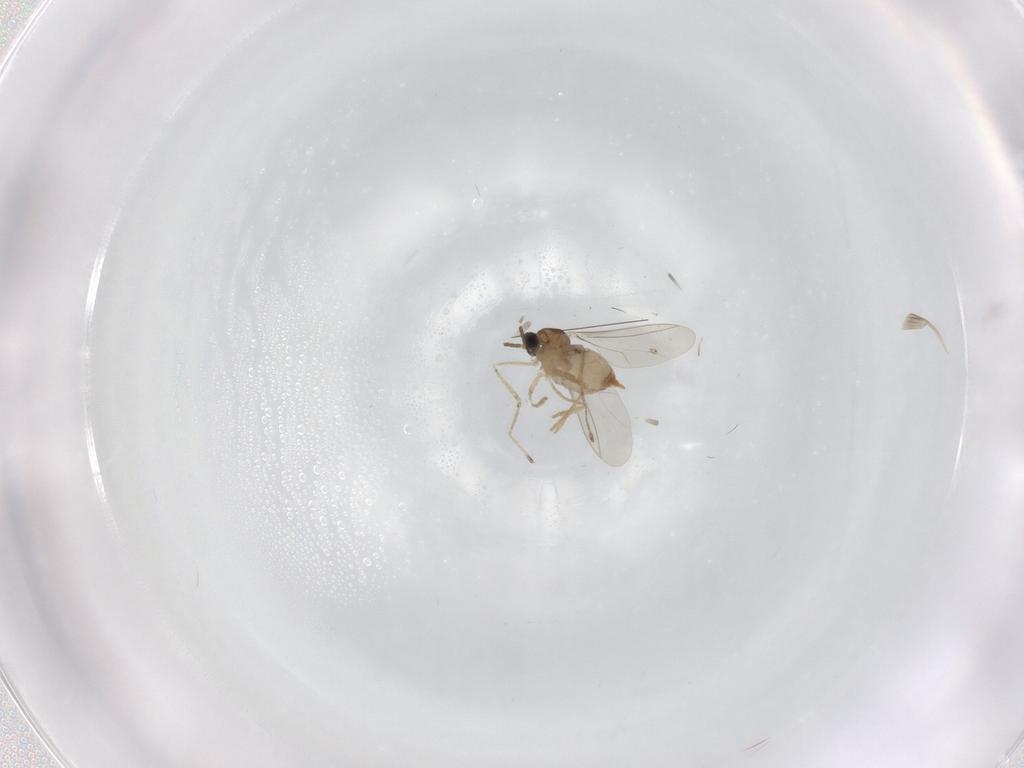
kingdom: Animalia
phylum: Arthropoda
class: Insecta
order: Diptera
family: Cecidomyiidae
